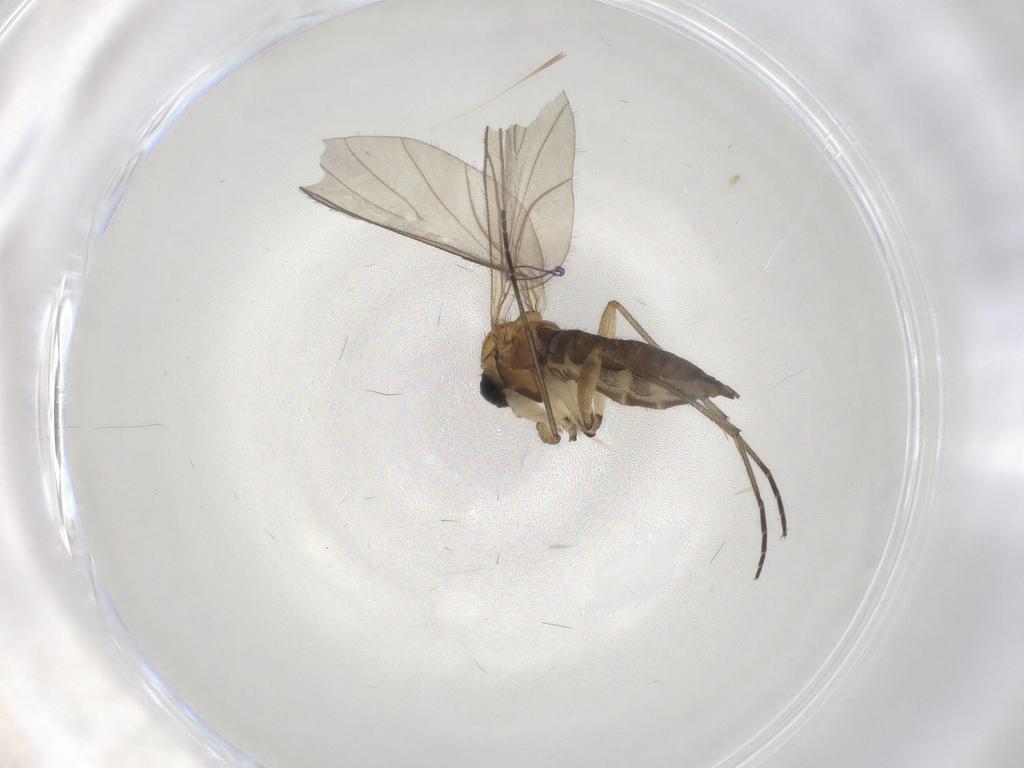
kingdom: Animalia
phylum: Arthropoda
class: Insecta
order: Diptera
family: Sciaridae
